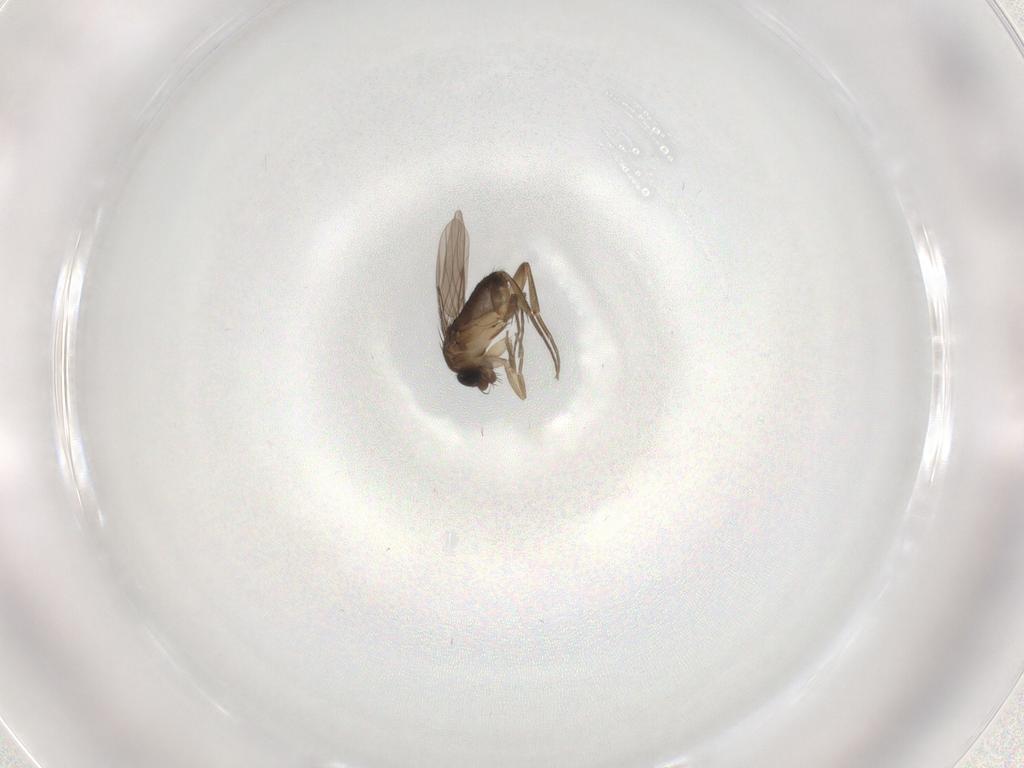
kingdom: Animalia
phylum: Arthropoda
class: Insecta
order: Diptera
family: Phoridae
